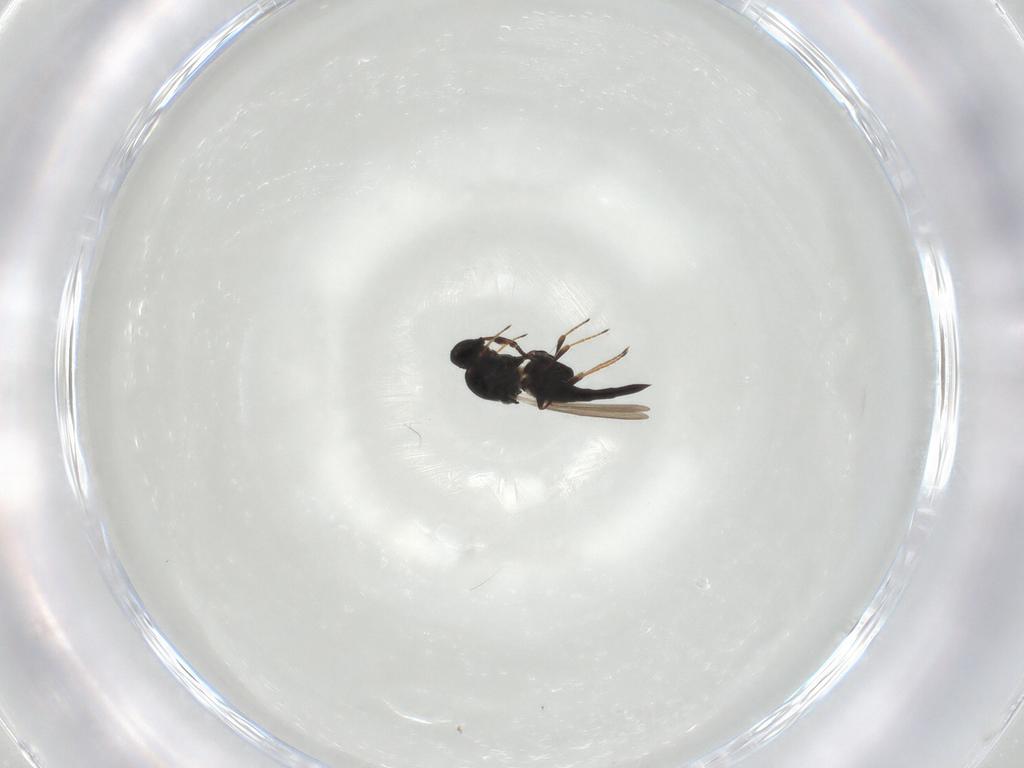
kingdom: Animalia
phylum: Arthropoda
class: Insecta
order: Hymenoptera
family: Platygastridae
